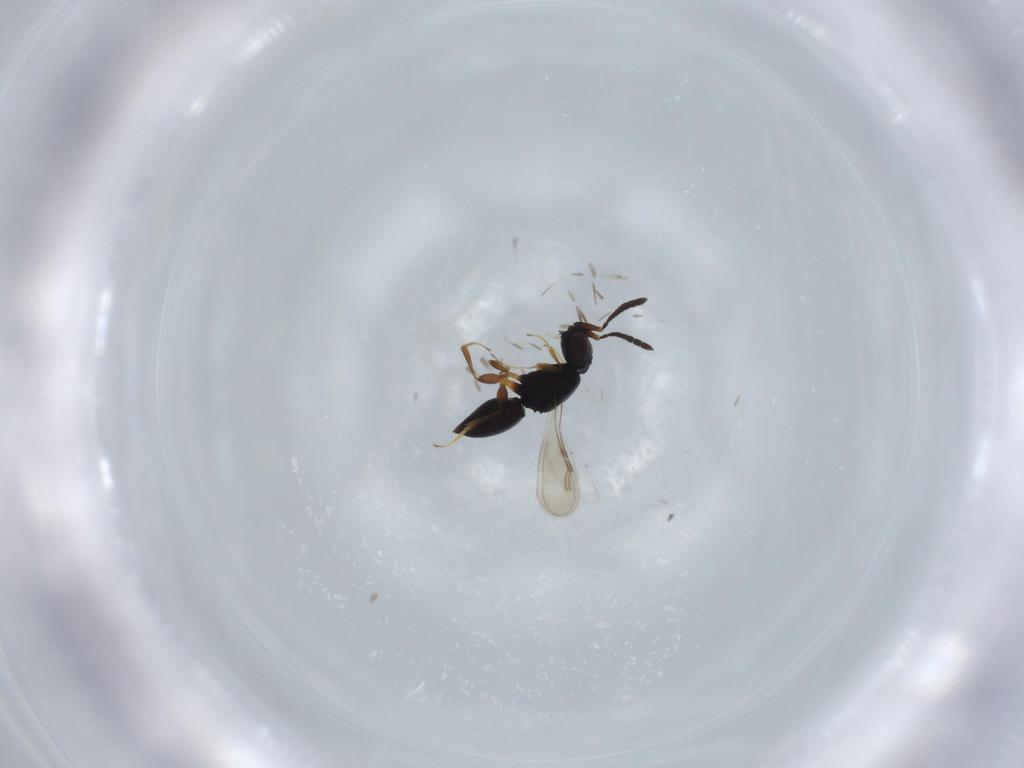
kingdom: Animalia
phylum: Arthropoda
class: Insecta
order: Hymenoptera
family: Ceraphronidae
